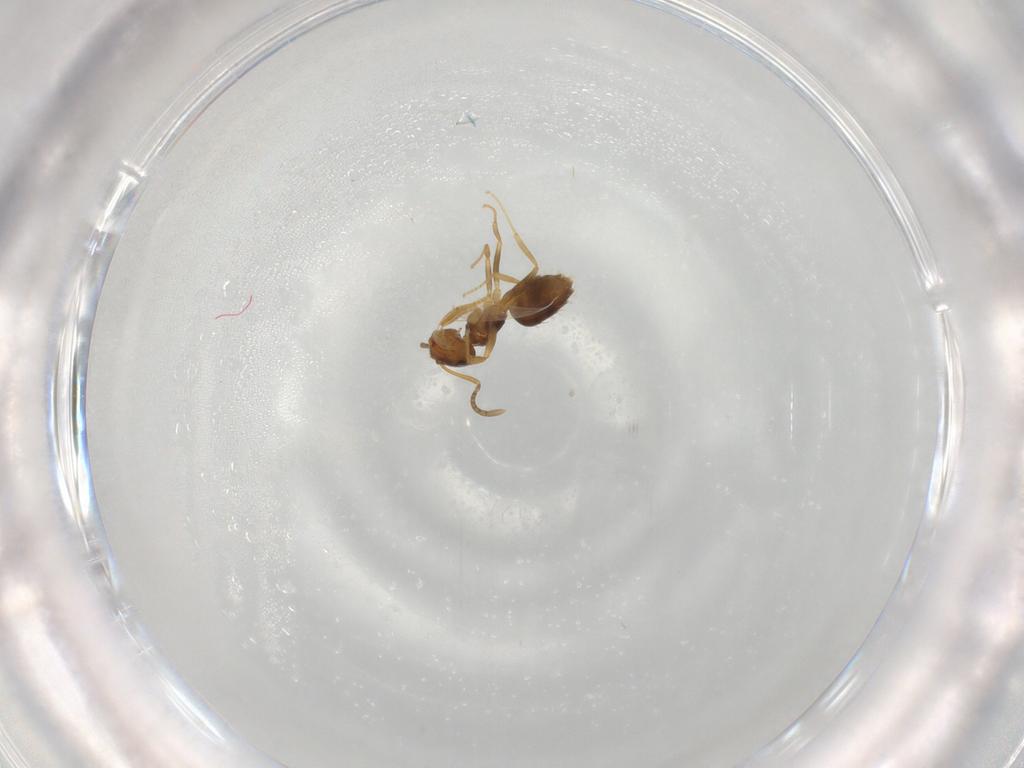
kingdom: Animalia
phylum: Arthropoda
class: Insecta
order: Hymenoptera
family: Formicidae
